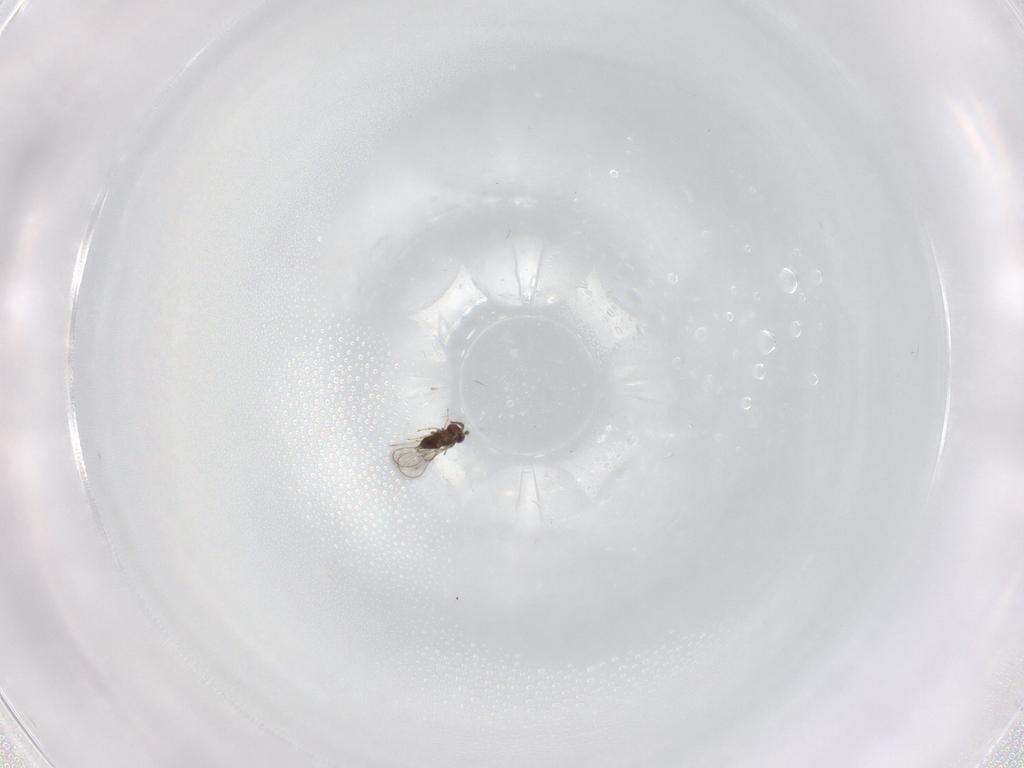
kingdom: Animalia
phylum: Arthropoda
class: Insecta
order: Hymenoptera
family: Trichogrammatidae
